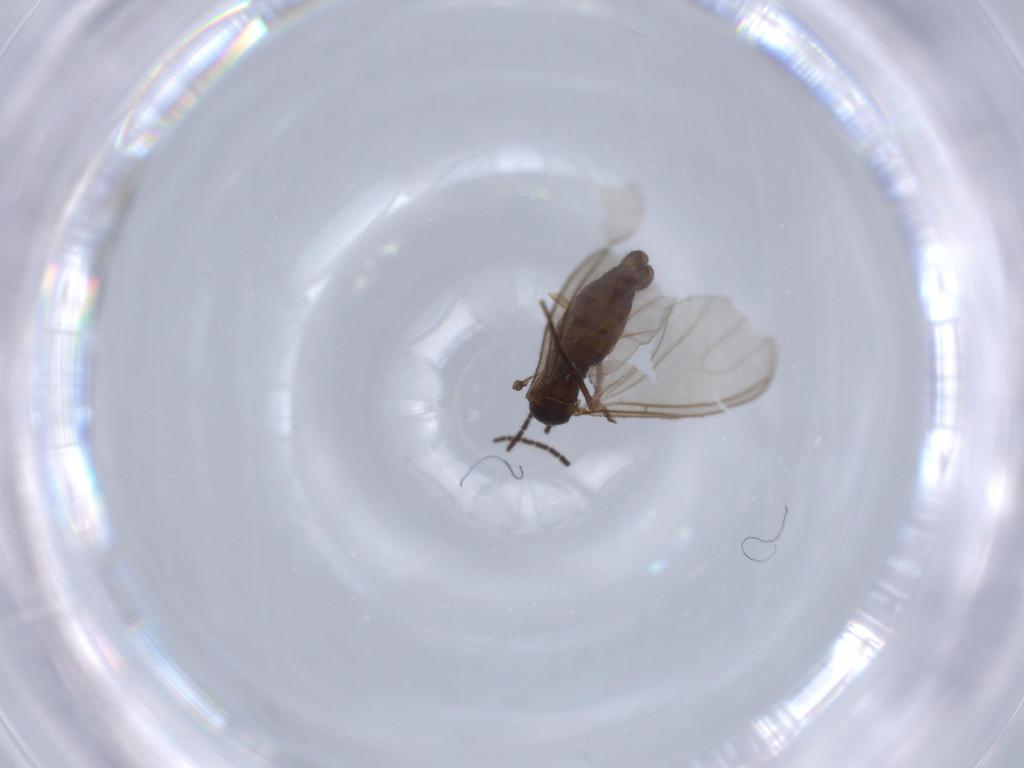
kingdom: Animalia
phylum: Arthropoda
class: Insecta
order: Diptera
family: Sciaridae
